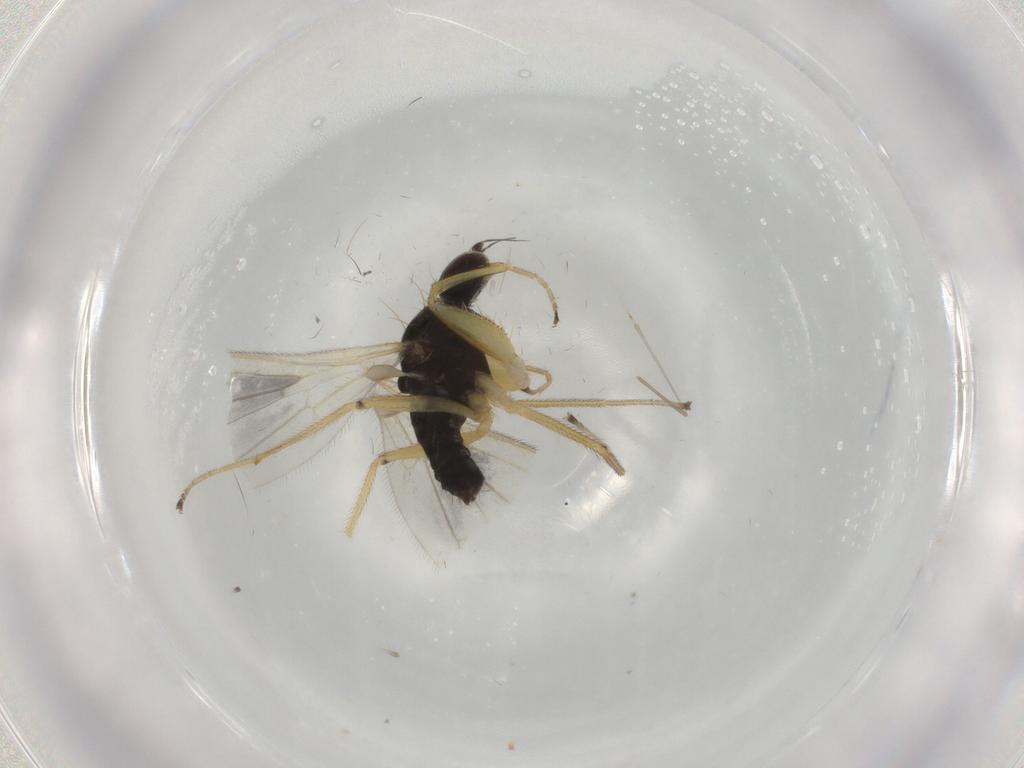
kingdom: Animalia
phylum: Arthropoda
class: Insecta
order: Diptera
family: Empididae
